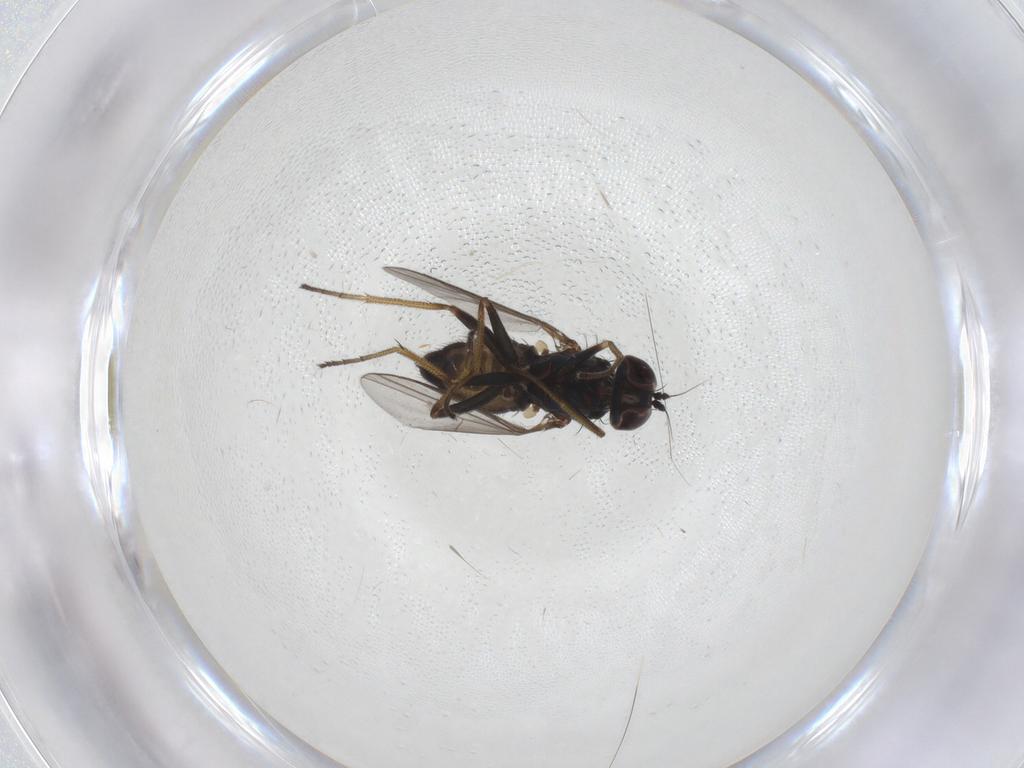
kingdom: Animalia
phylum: Arthropoda
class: Insecta
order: Diptera
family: Dolichopodidae
